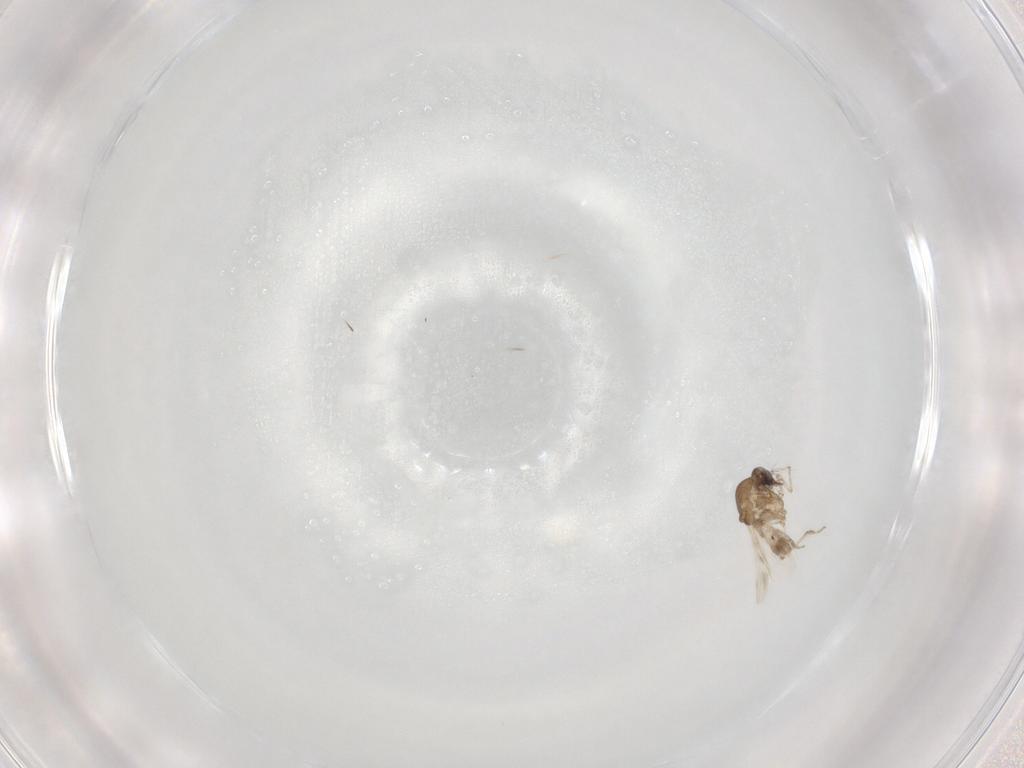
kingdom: Animalia
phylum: Arthropoda
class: Insecta
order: Diptera
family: Ceratopogonidae
